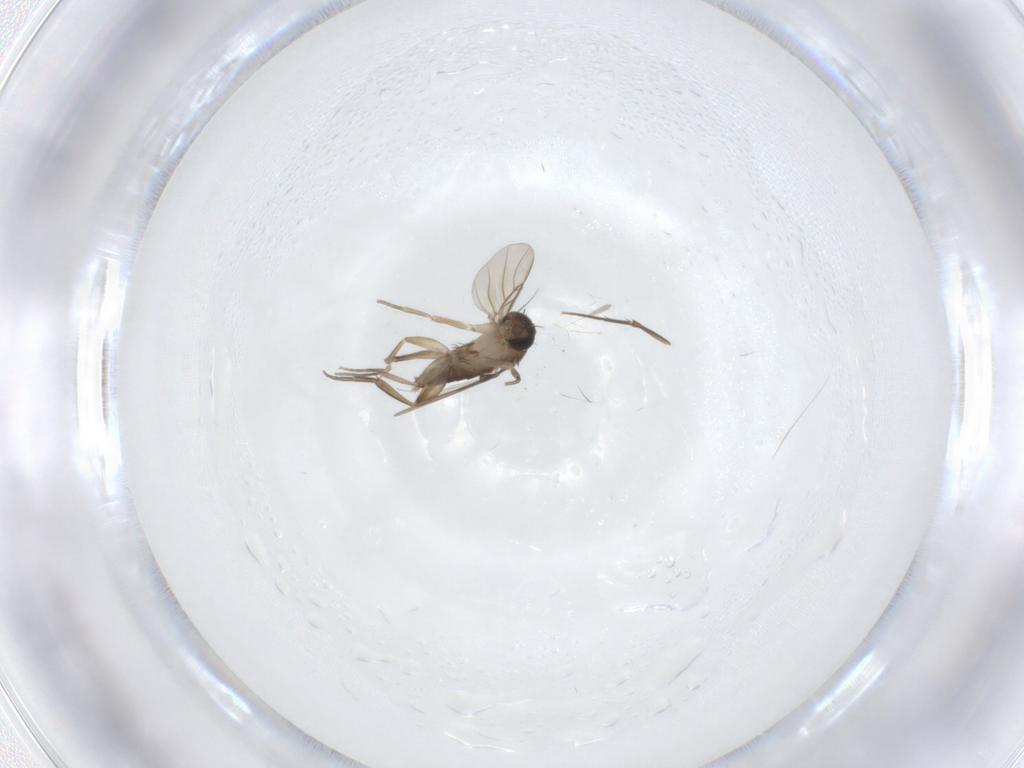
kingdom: Animalia
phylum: Arthropoda
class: Insecta
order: Diptera
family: Phoridae
